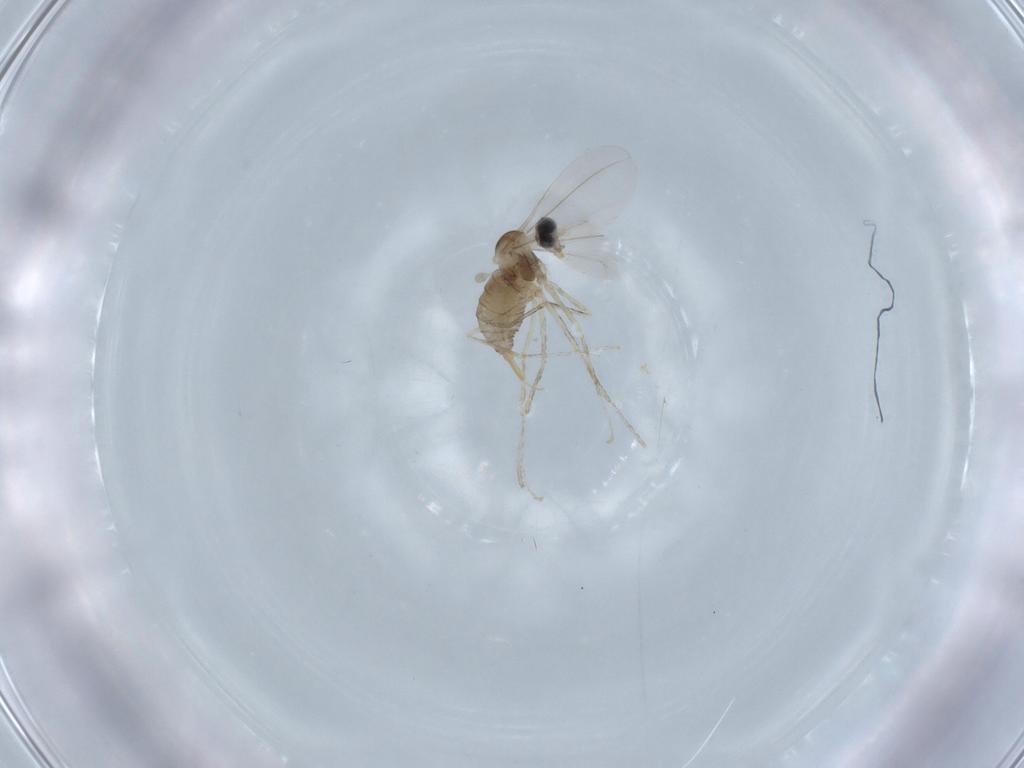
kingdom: Animalia
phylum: Arthropoda
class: Insecta
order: Diptera
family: Cecidomyiidae
